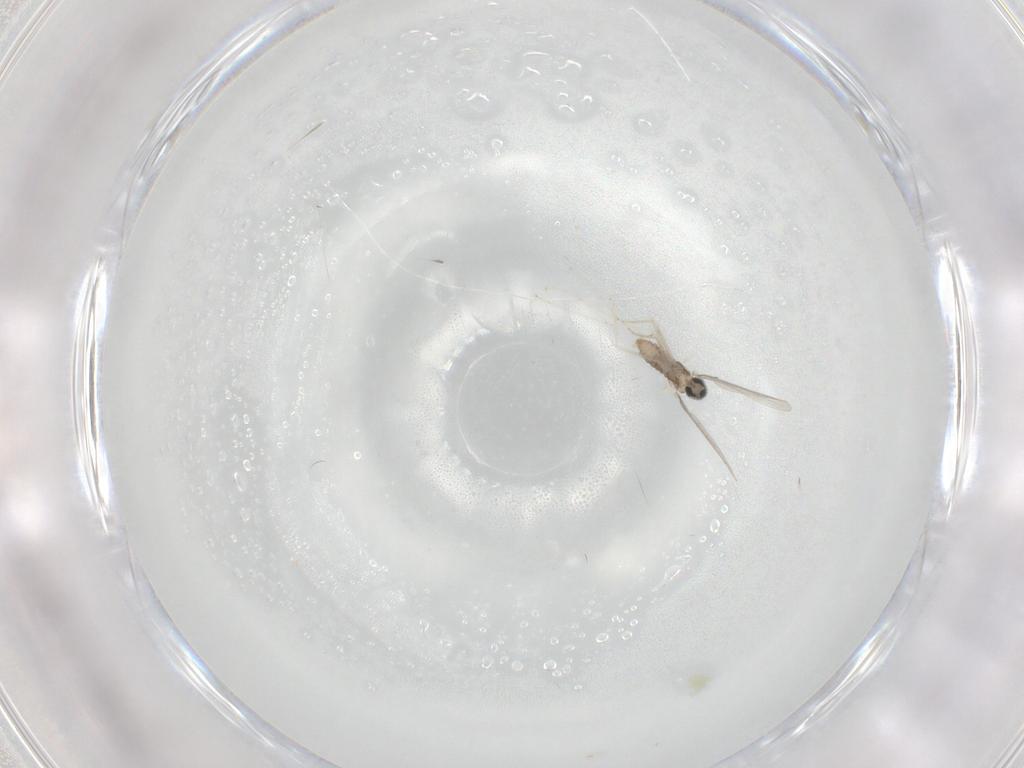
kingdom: Animalia
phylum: Arthropoda
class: Insecta
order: Diptera
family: Cecidomyiidae
